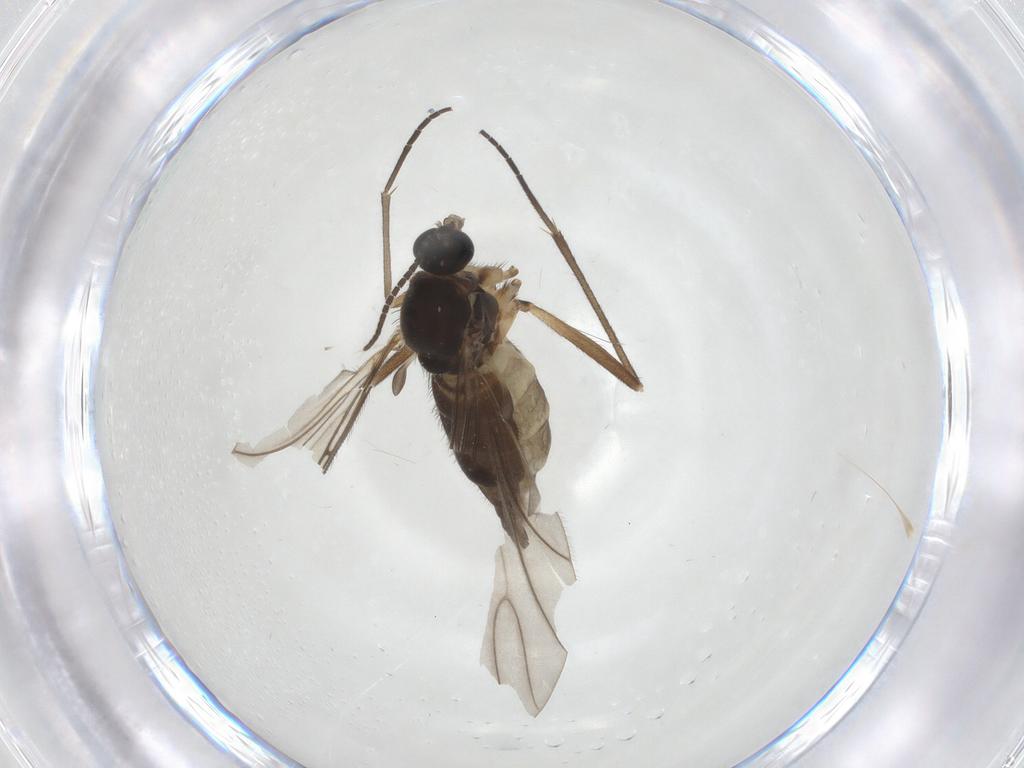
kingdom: Animalia
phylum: Arthropoda
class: Insecta
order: Diptera
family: Sciaridae
